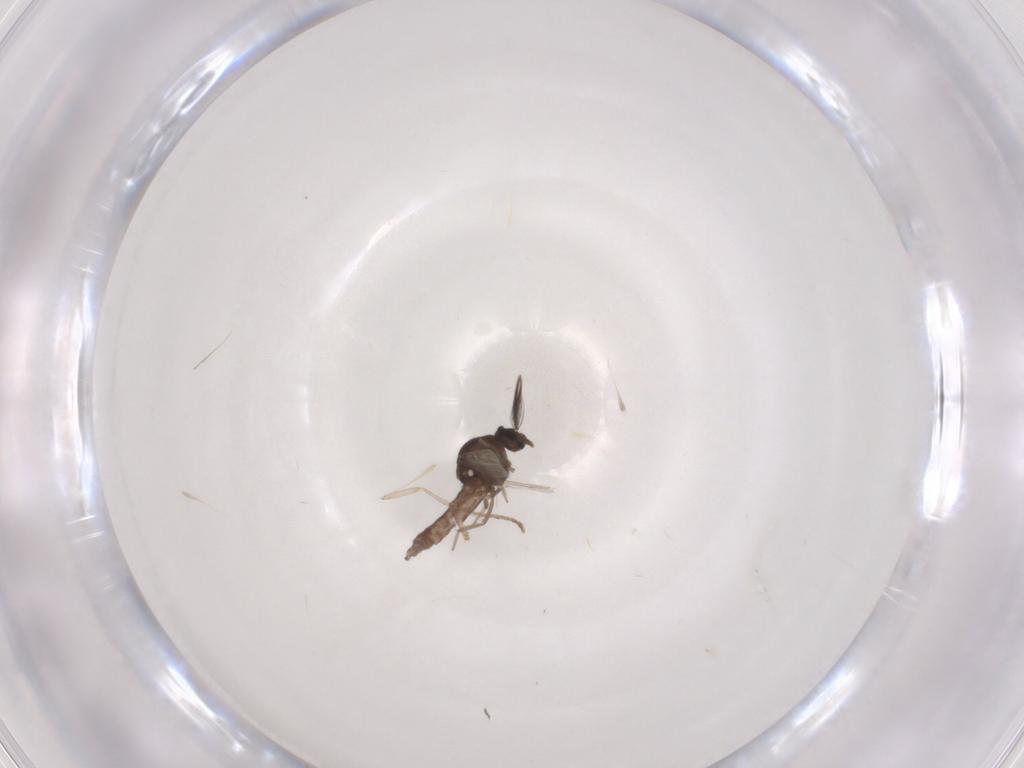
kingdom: Animalia
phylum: Arthropoda
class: Insecta
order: Diptera
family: Ceratopogonidae
